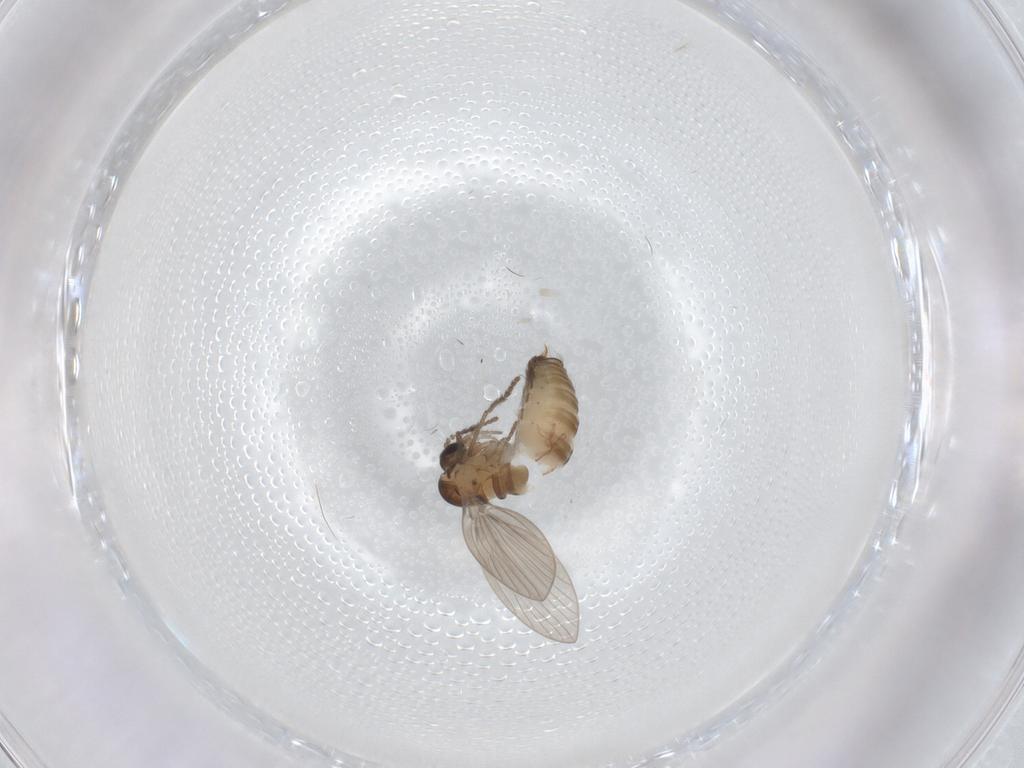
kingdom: Animalia
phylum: Arthropoda
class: Insecta
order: Diptera
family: Psychodidae
